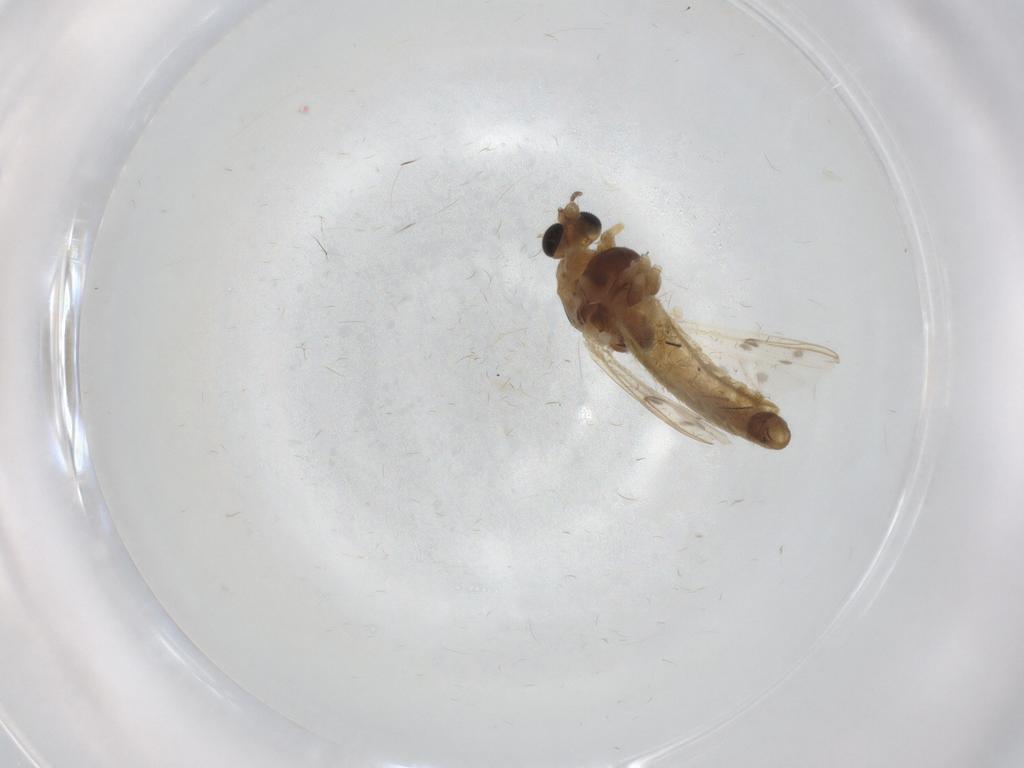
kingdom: Animalia
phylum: Arthropoda
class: Insecta
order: Diptera
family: Chironomidae
